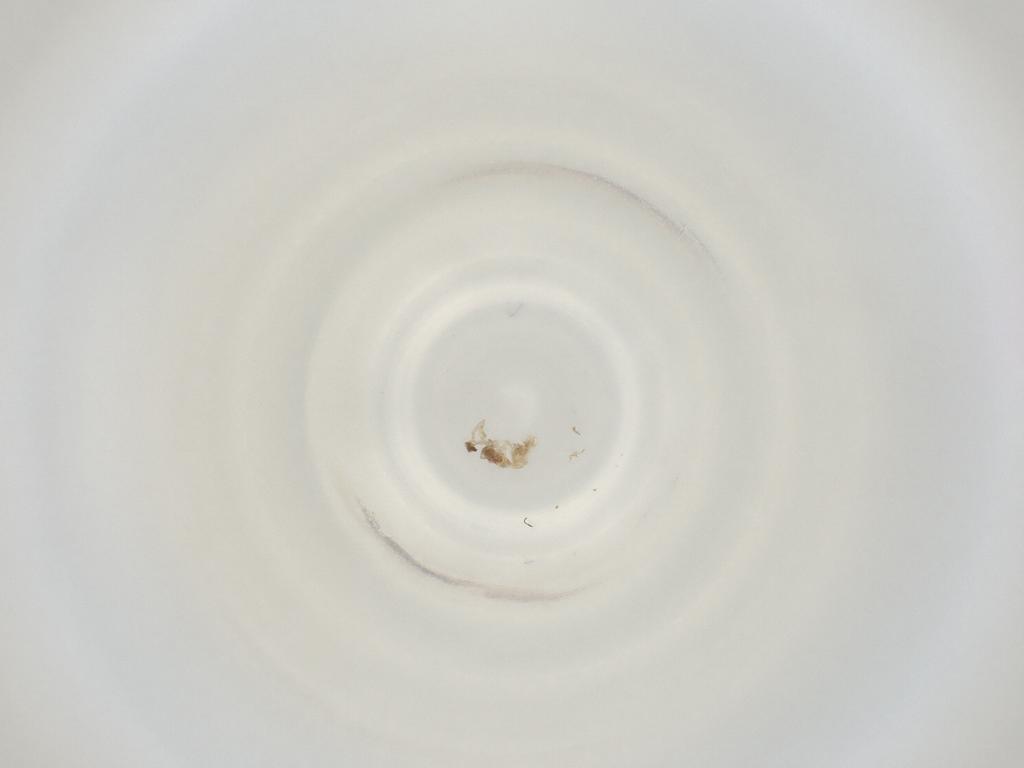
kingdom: Animalia
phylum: Arthropoda
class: Insecta
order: Diptera
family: Cecidomyiidae
